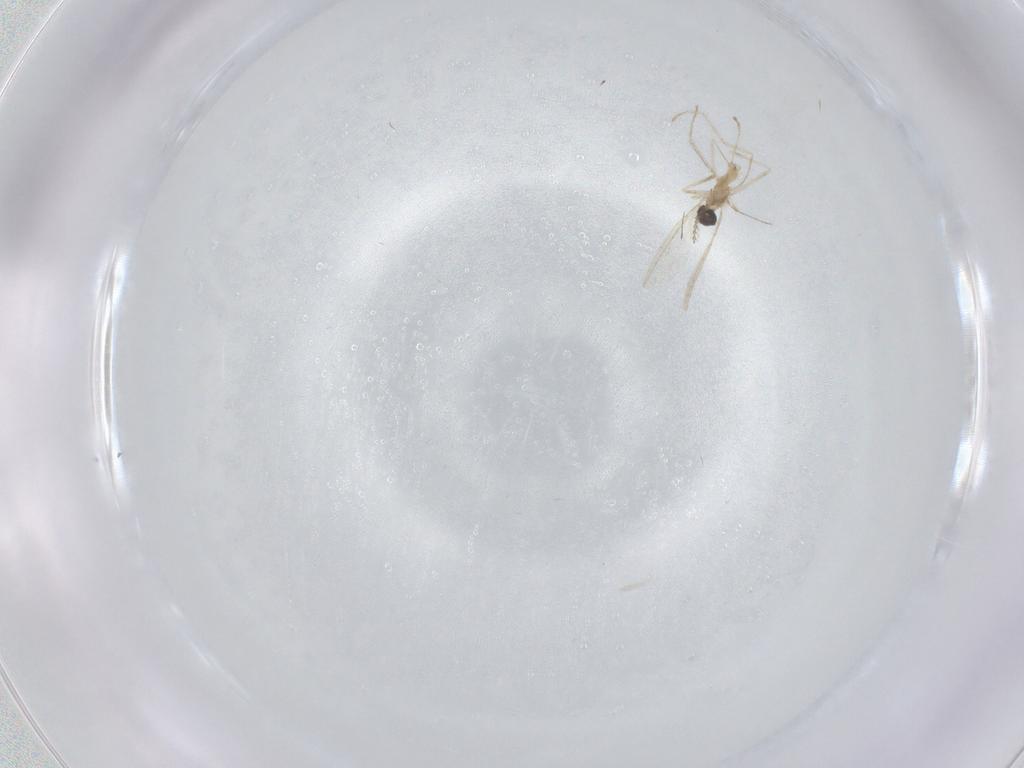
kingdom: Animalia
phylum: Arthropoda
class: Insecta
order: Diptera
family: Cecidomyiidae
